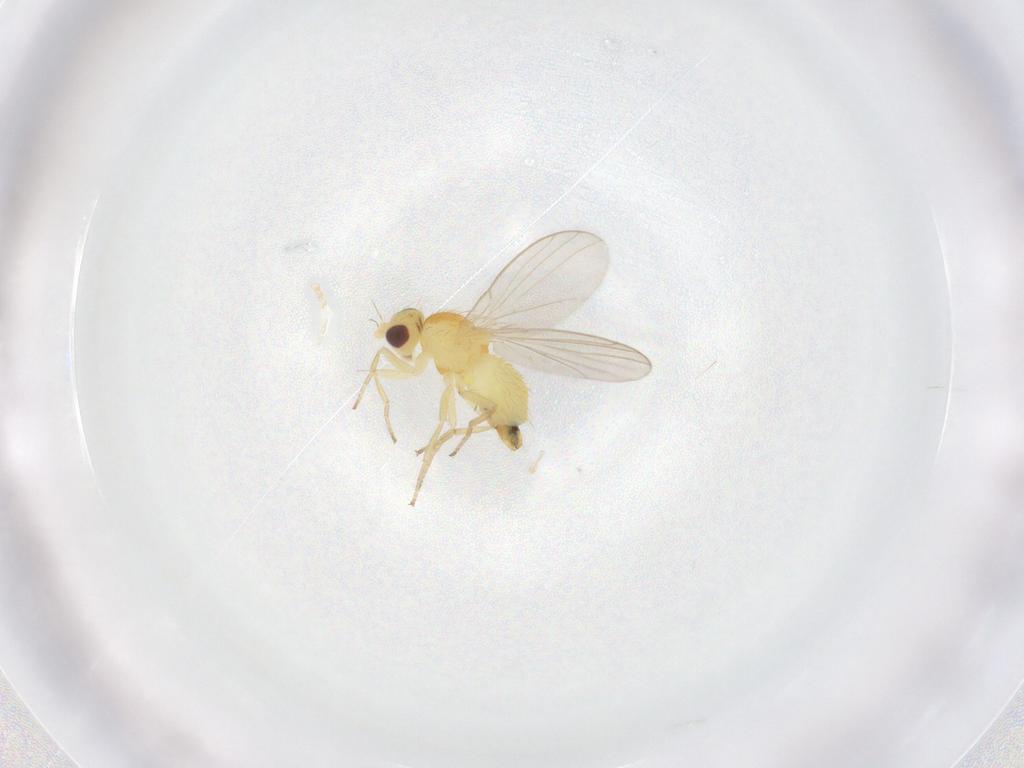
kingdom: Animalia
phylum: Arthropoda
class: Insecta
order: Diptera
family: Agromyzidae
